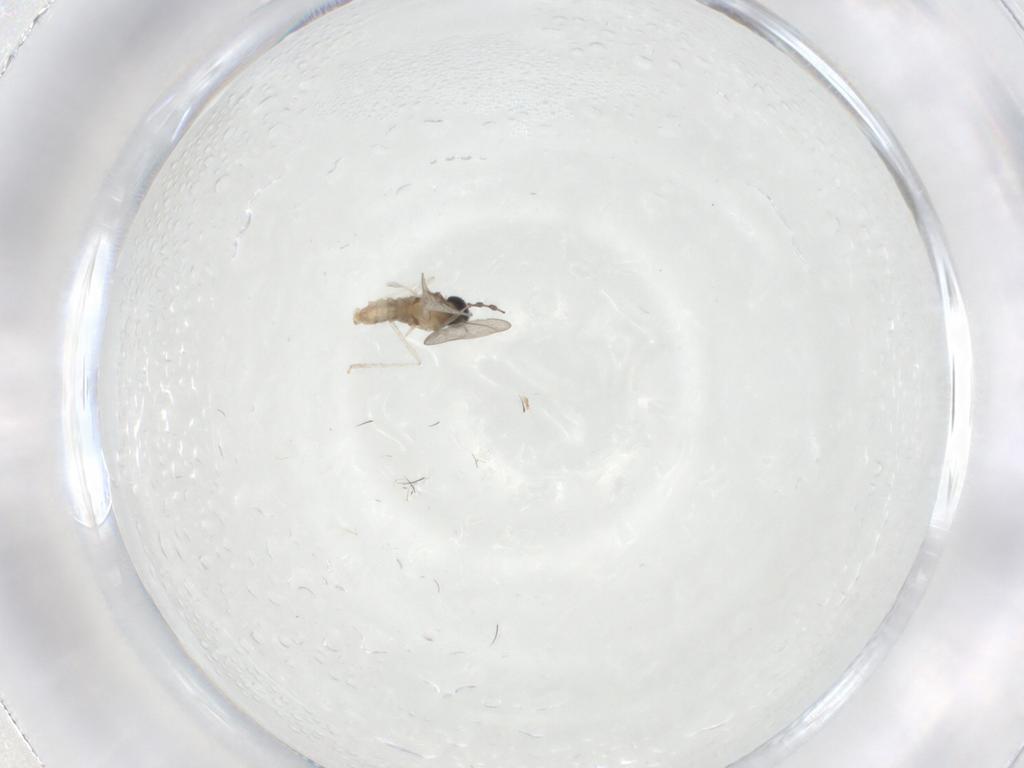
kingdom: Animalia
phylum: Arthropoda
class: Insecta
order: Diptera
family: Cecidomyiidae
